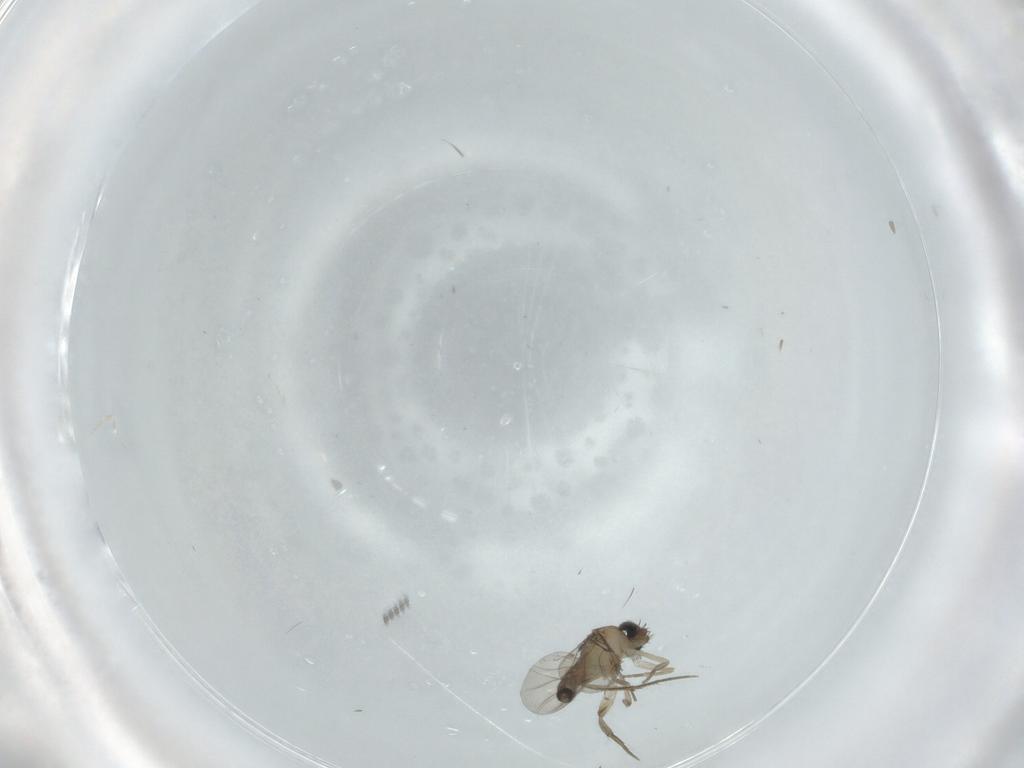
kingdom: Animalia
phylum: Arthropoda
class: Insecta
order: Diptera
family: Phoridae
